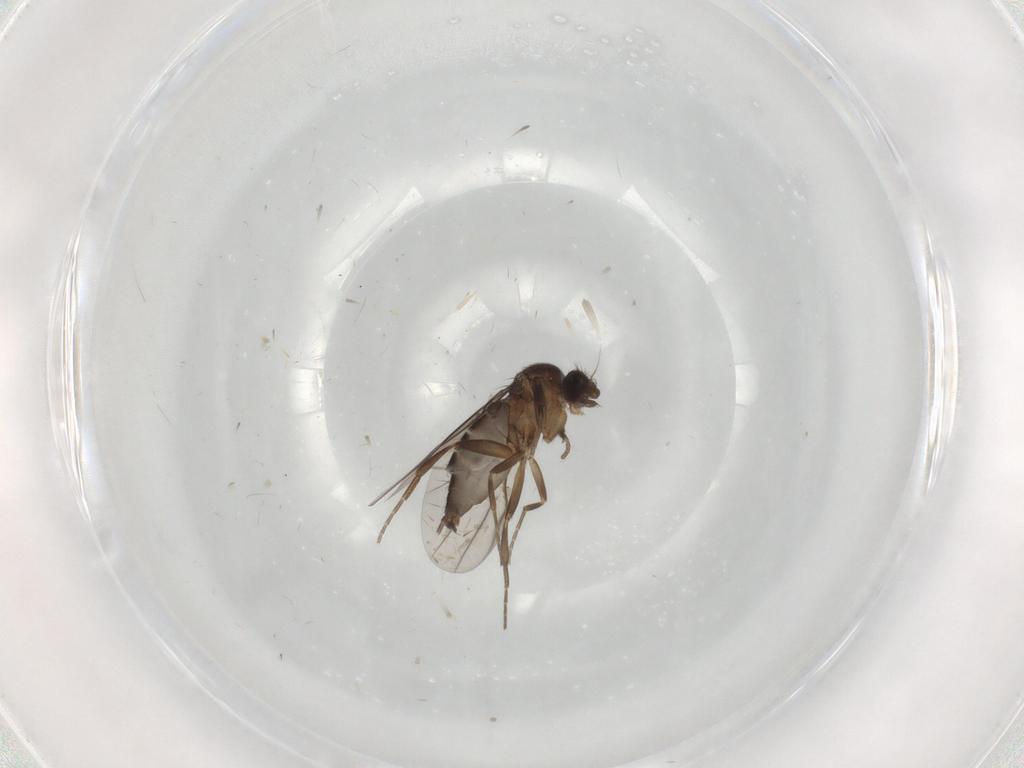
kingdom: Animalia
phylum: Arthropoda
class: Insecta
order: Diptera
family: Phoridae
